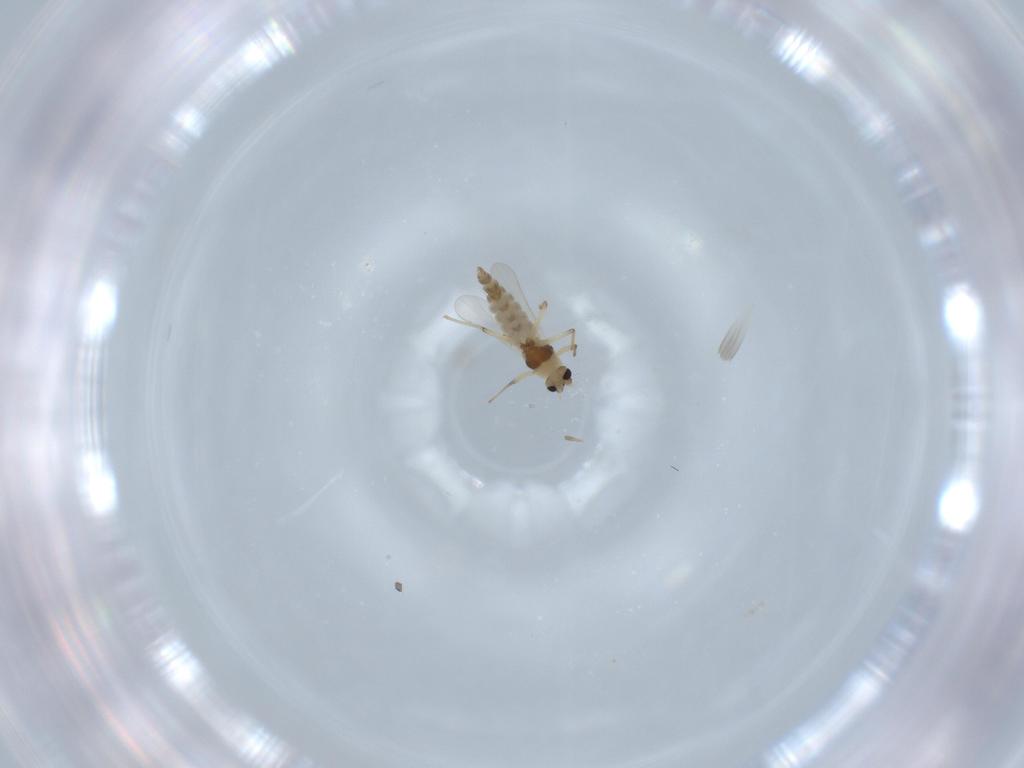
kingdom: Animalia
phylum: Arthropoda
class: Insecta
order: Diptera
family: Chironomidae
